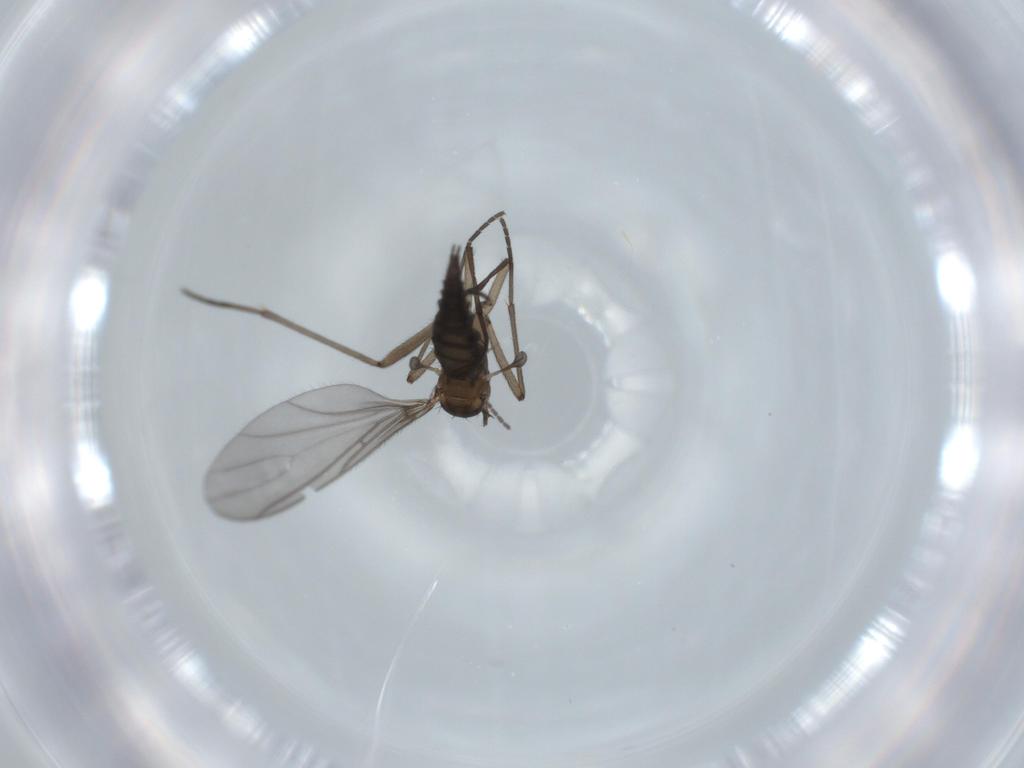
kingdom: Animalia
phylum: Arthropoda
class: Insecta
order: Diptera
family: Sciaridae
